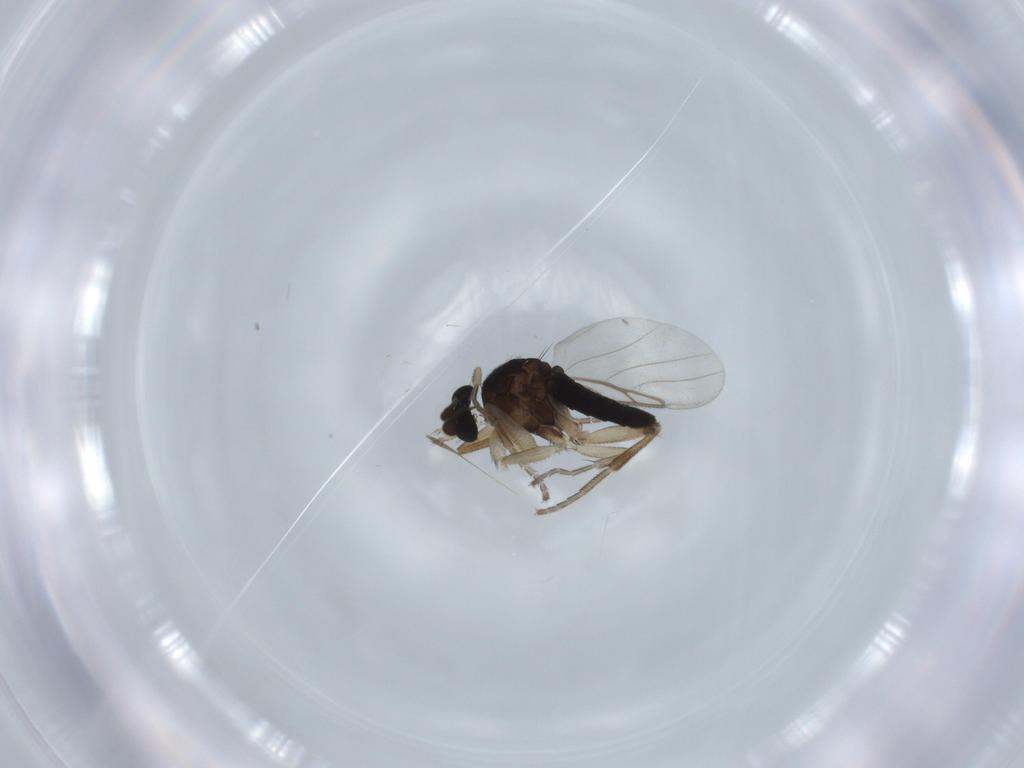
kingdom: Animalia
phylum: Arthropoda
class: Insecta
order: Diptera
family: Phoridae
